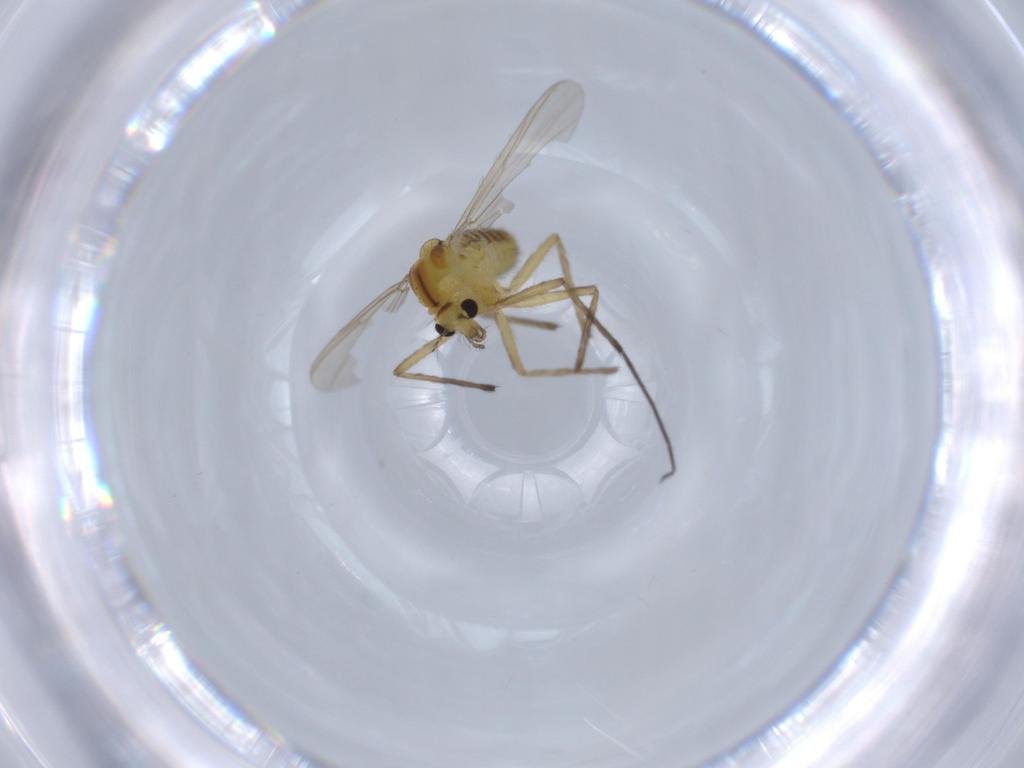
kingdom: Animalia
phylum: Arthropoda
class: Insecta
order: Diptera
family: Chironomidae
